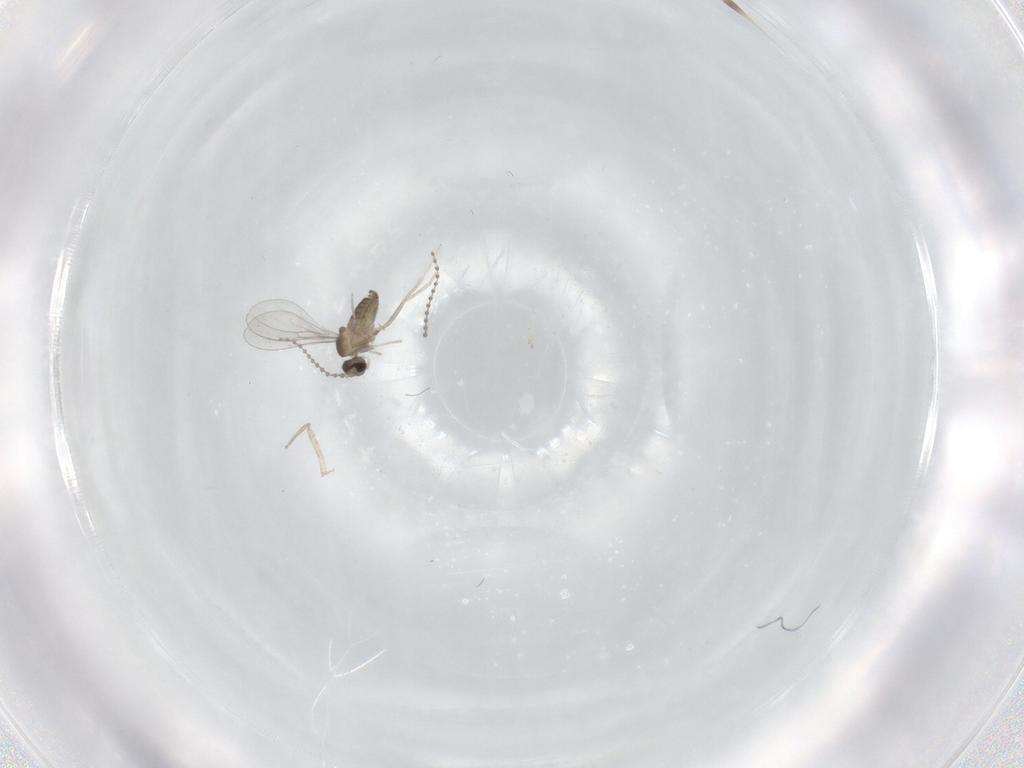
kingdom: Animalia
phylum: Arthropoda
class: Insecta
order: Diptera
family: Cecidomyiidae
